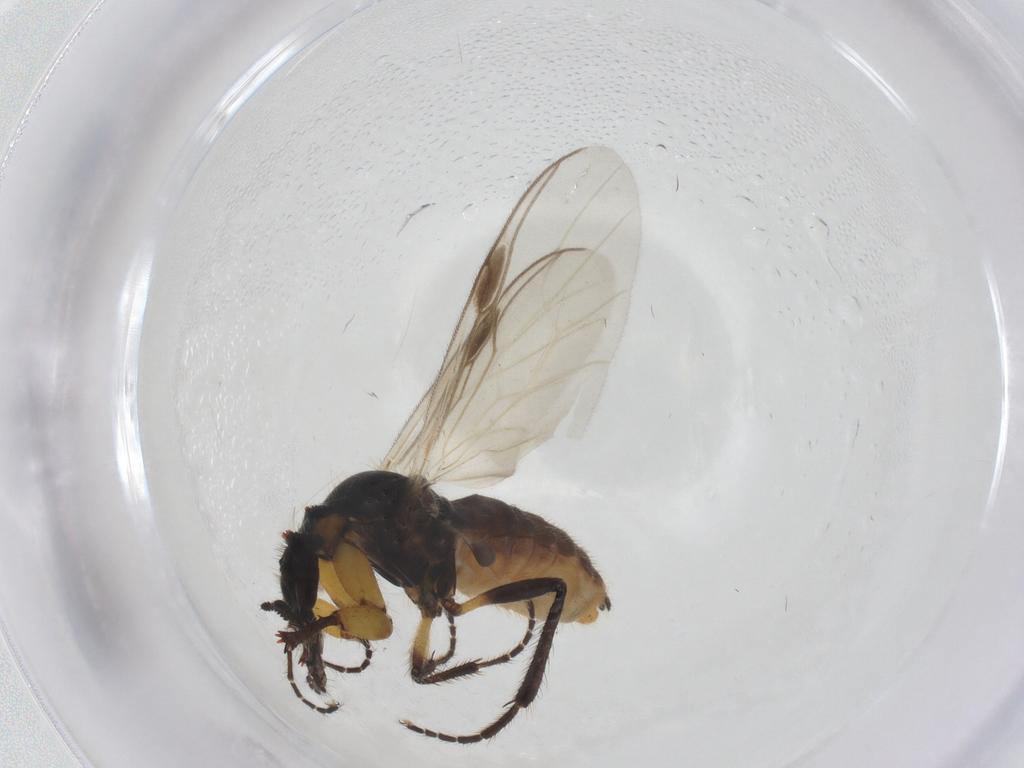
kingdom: Animalia
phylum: Arthropoda
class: Insecta
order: Diptera
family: Bibionidae
